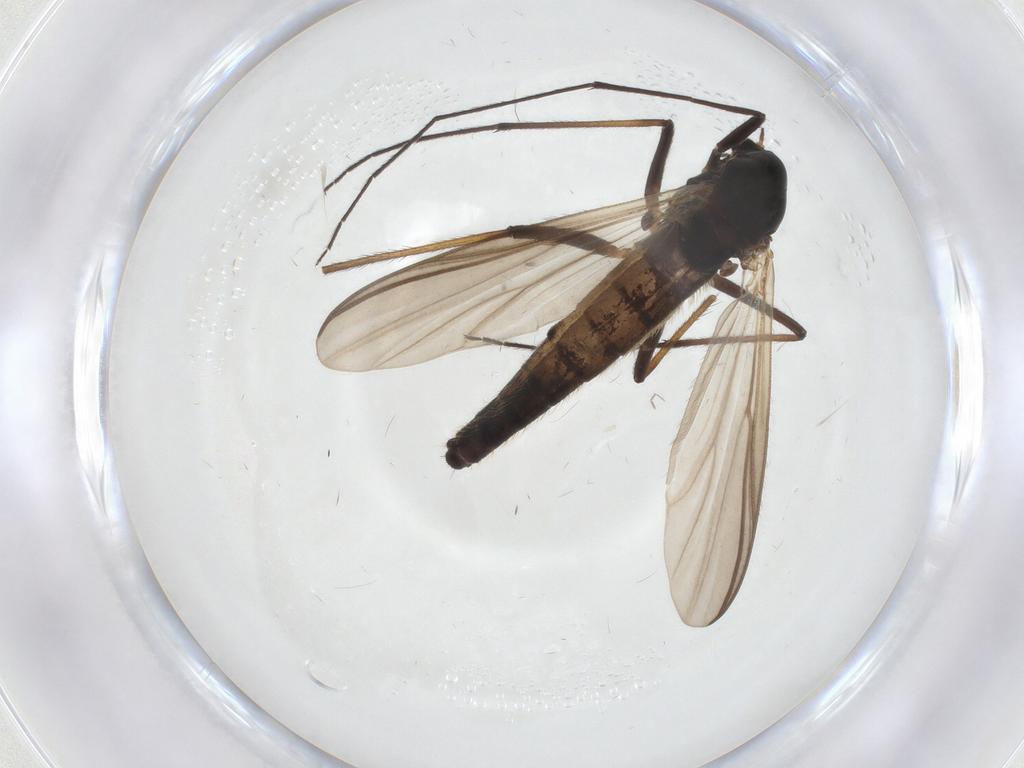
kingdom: Animalia
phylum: Arthropoda
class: Insecta
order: Diptera
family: Chironomidae
